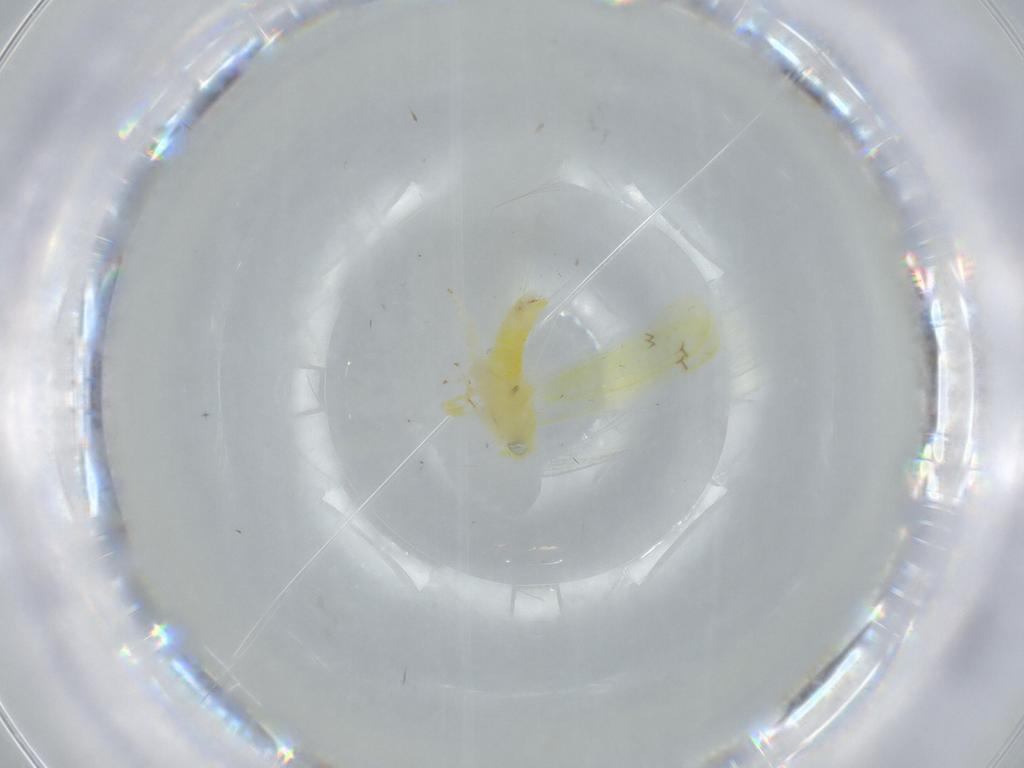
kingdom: Animalia
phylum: Arthropoda
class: Insecta
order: Hemiptera
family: Cicadellidae
